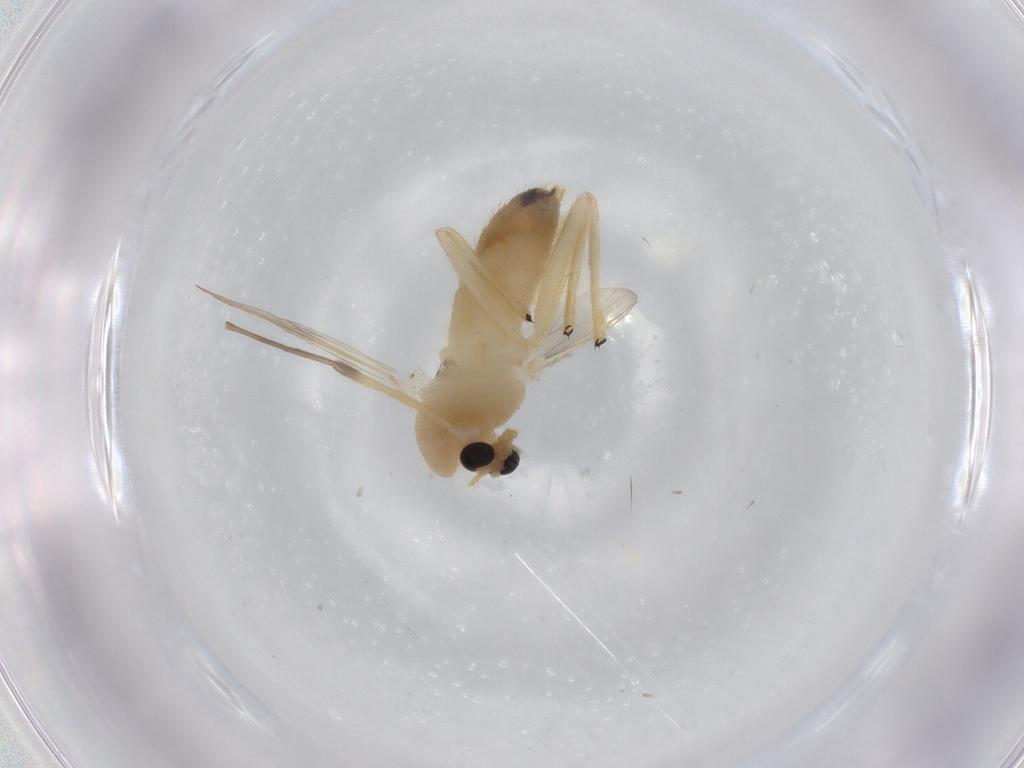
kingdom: Animalia
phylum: Arthropoda
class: Insecta
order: Diptera
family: Chironomidae
